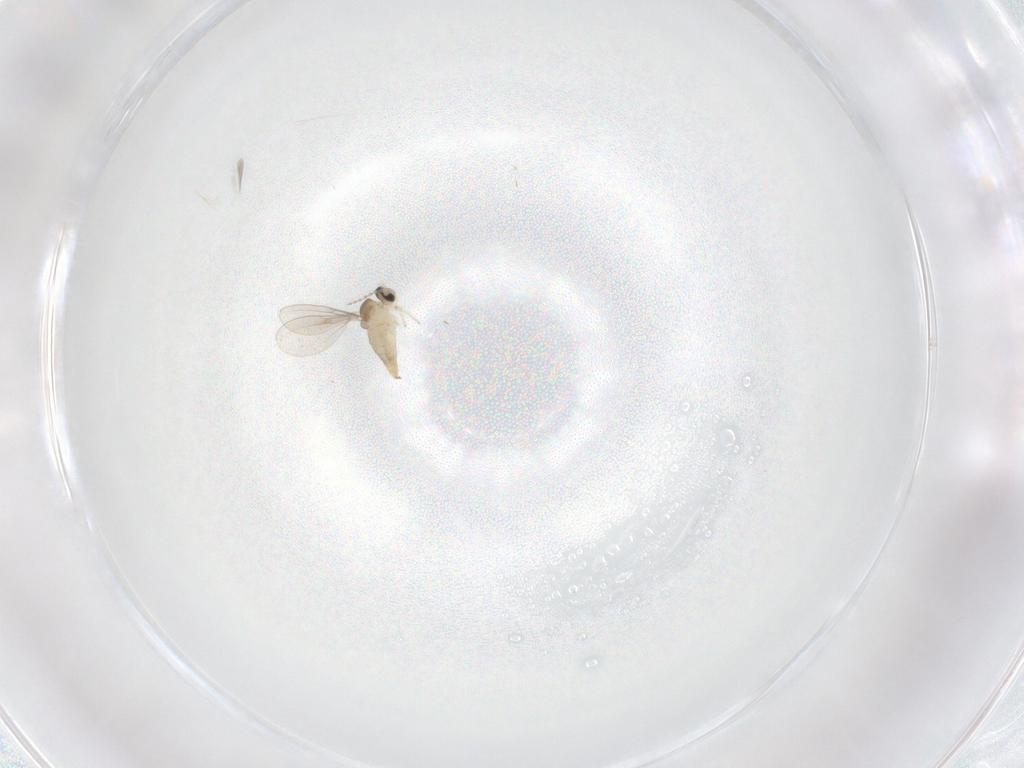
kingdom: Animalia
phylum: Arthropoda
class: Insecta
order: Diptera
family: Cecidomyiidae
